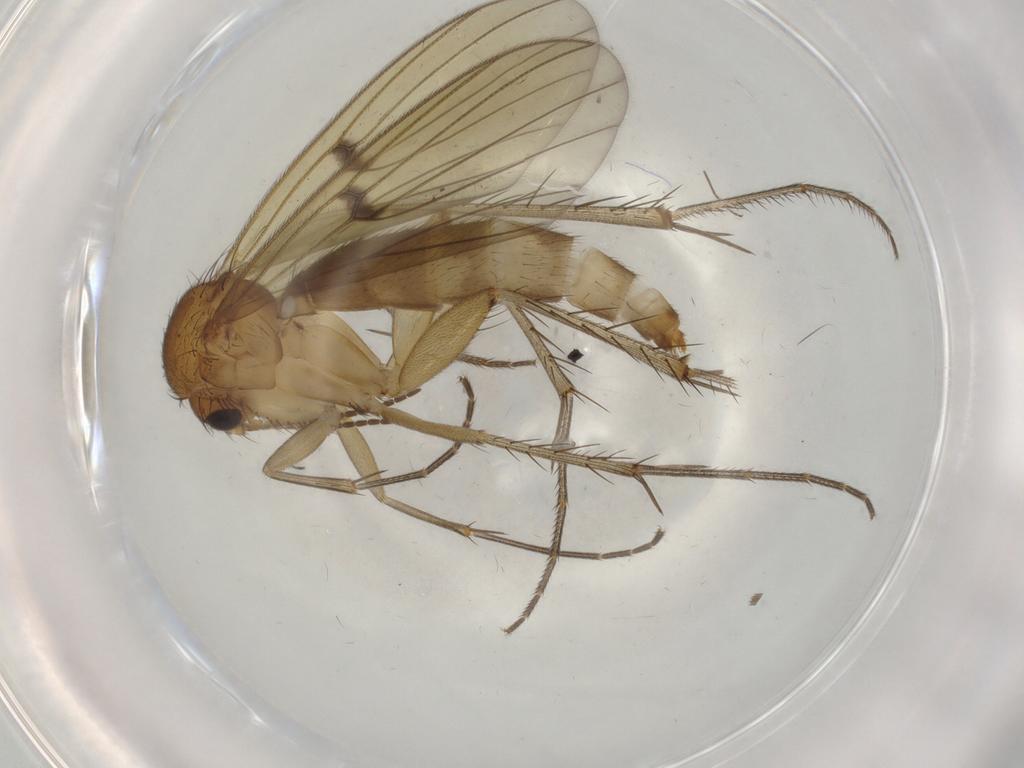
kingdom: Animalia
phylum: Arthropoda
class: Insecta
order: Diptera
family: Mycetophilidae
